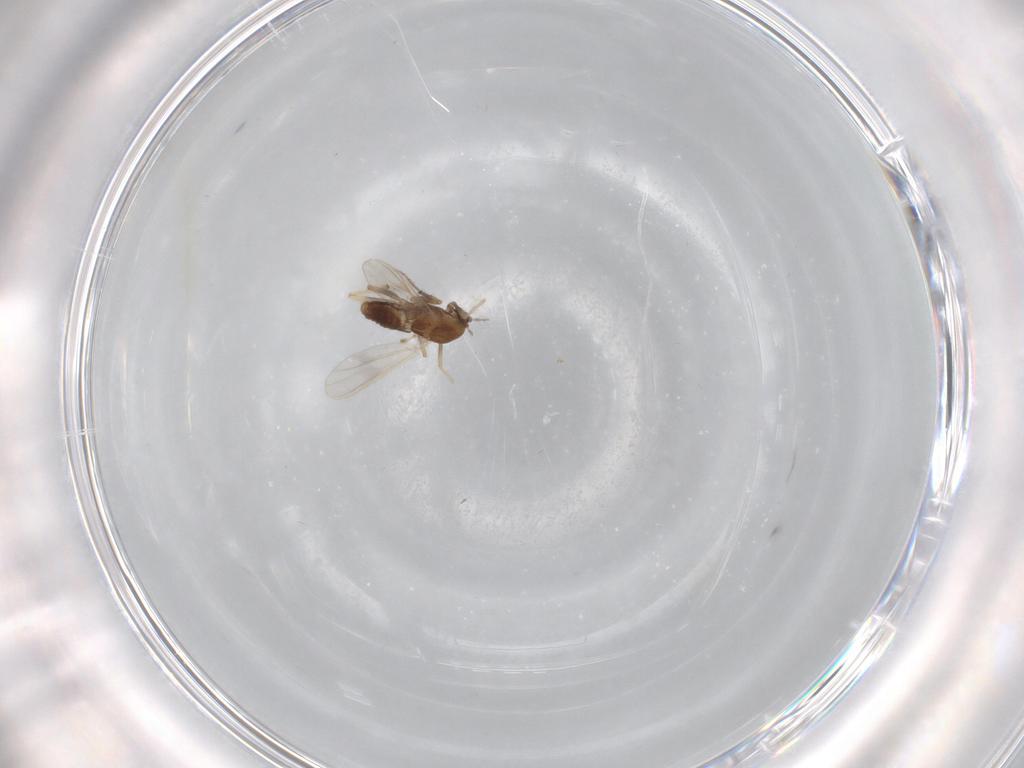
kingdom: Animalia
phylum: Arthropoda
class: Insecta
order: Diptera
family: Chironomidae
